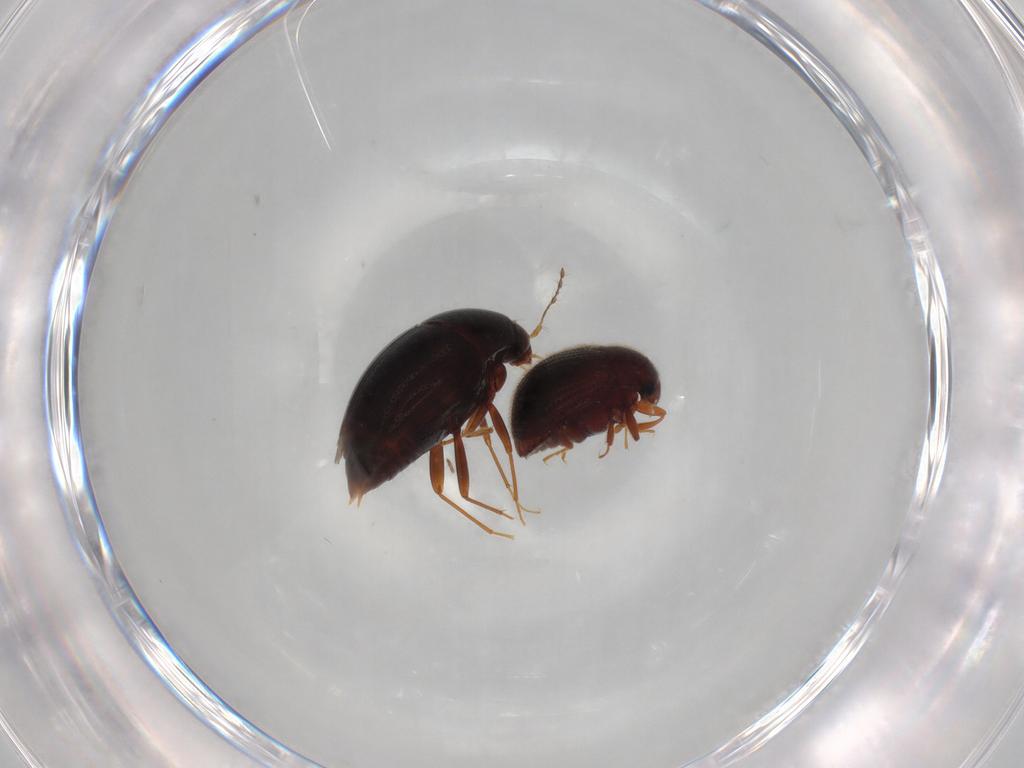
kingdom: Animalia
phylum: Arthropoda
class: Insecta
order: Coleoptera
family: Staphylinidae
